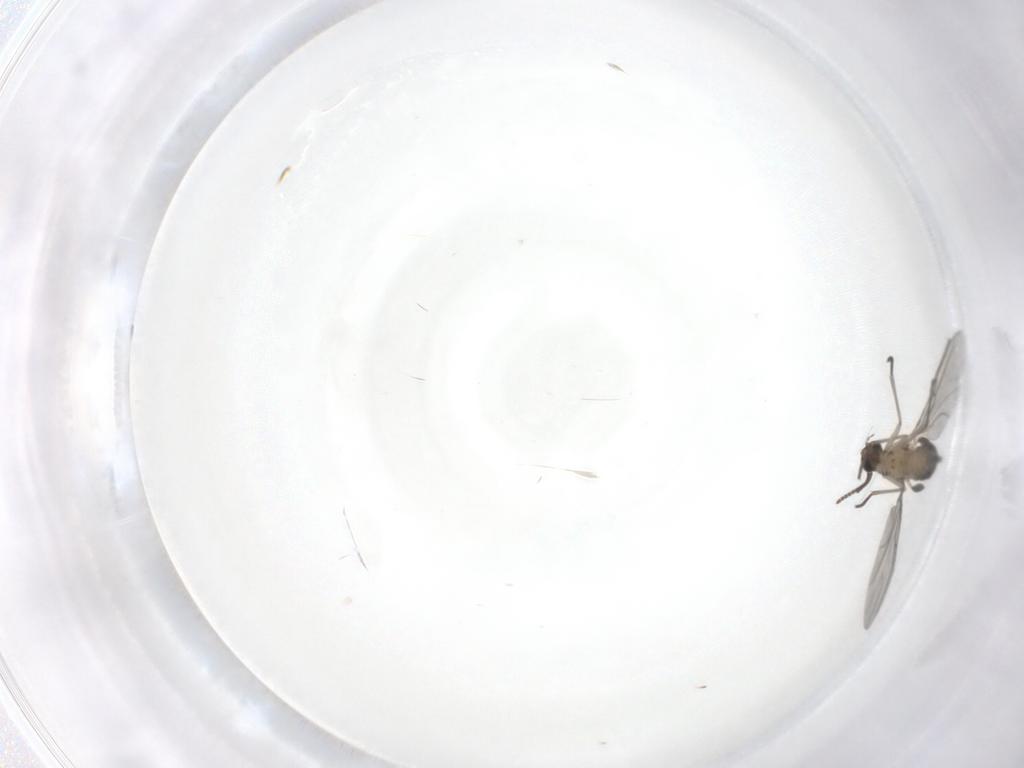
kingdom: Animalia
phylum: Arthropoda
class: Insecta
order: Diptera
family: Sciaridae
